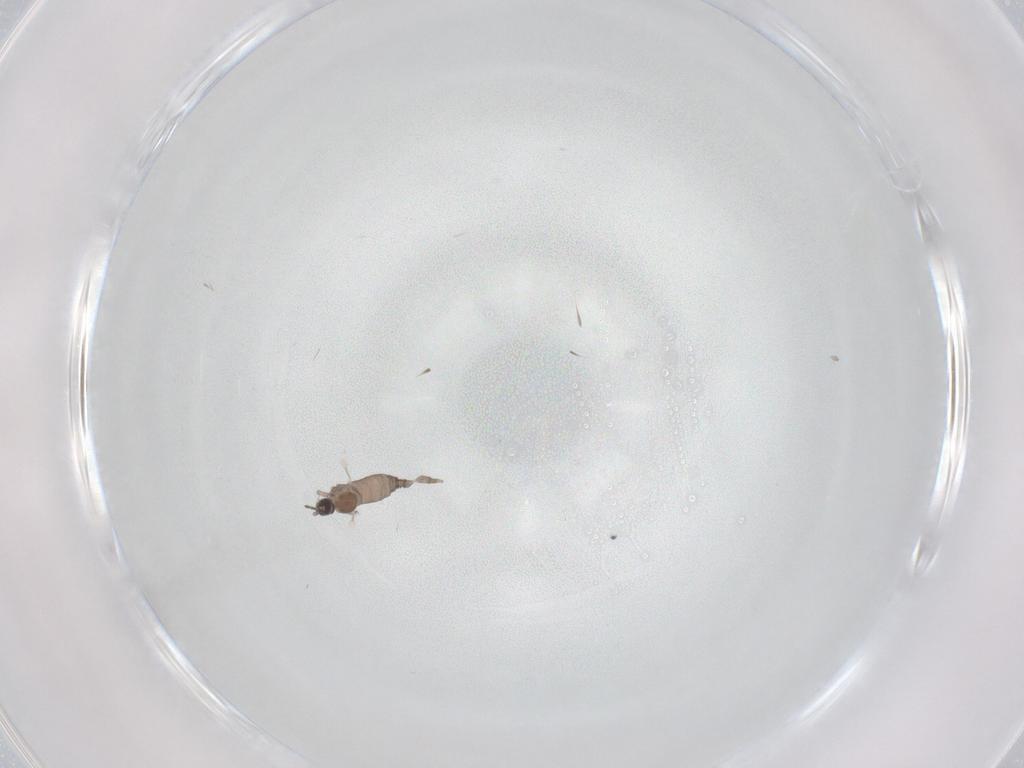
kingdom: Animalia
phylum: Arthropoda
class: Insecta
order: Diptera
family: Cecidomyiidae
